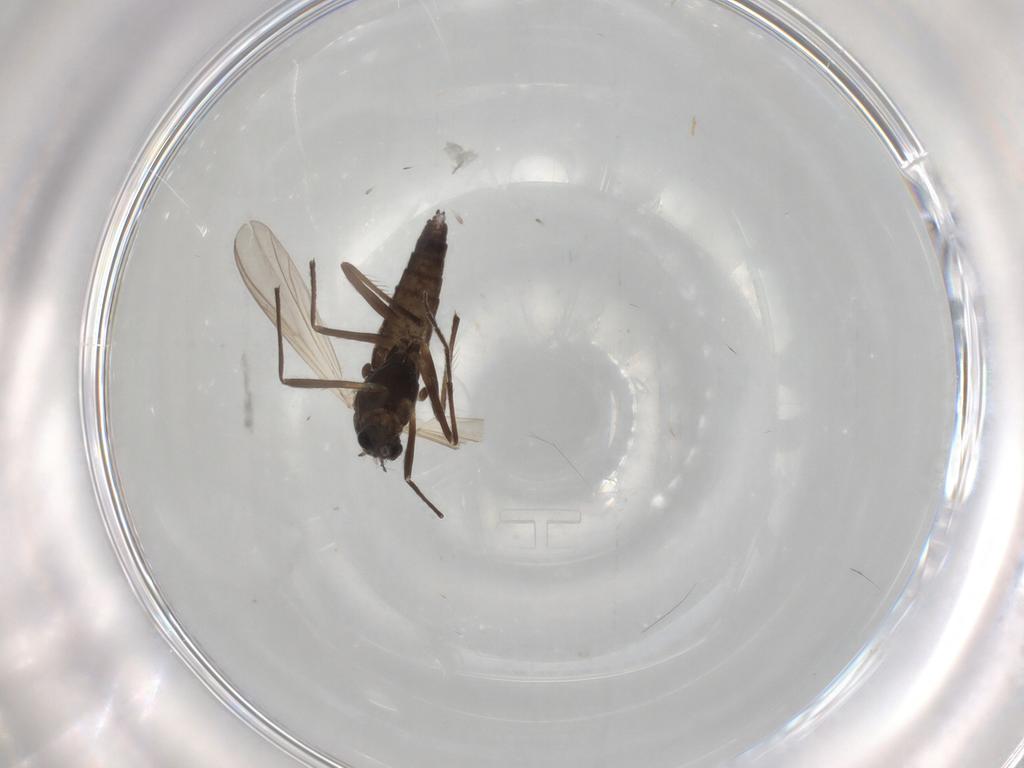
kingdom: Animalia
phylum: Arthropoda
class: Insecta
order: Diptera
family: Chironomidae
